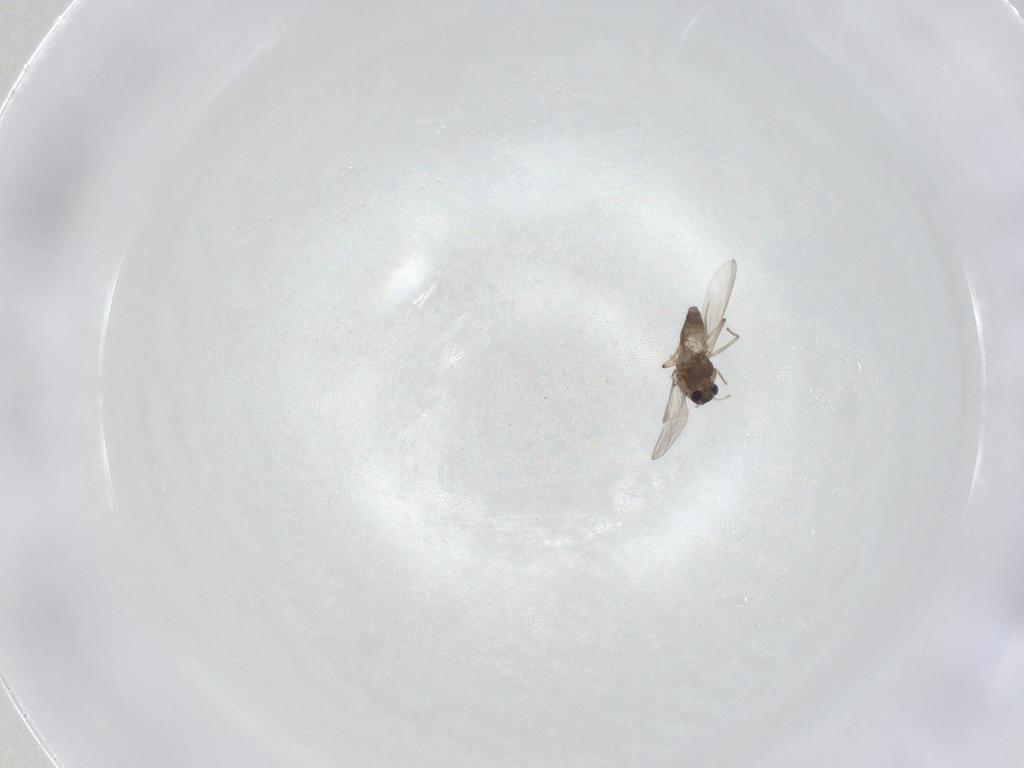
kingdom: Animalia
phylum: Arthropoda
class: Insecta
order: Diptera
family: Chironomidae
